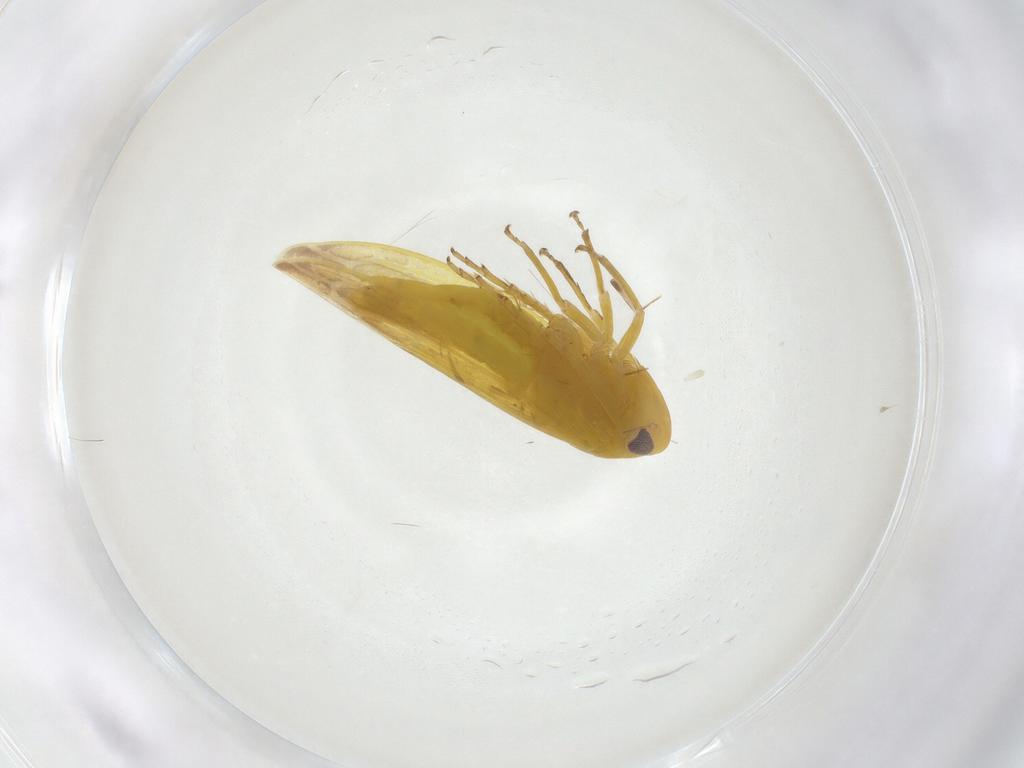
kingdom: Animalia
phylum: Arthropoda
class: Insecta
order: Hemiptera
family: Cicadellidae
